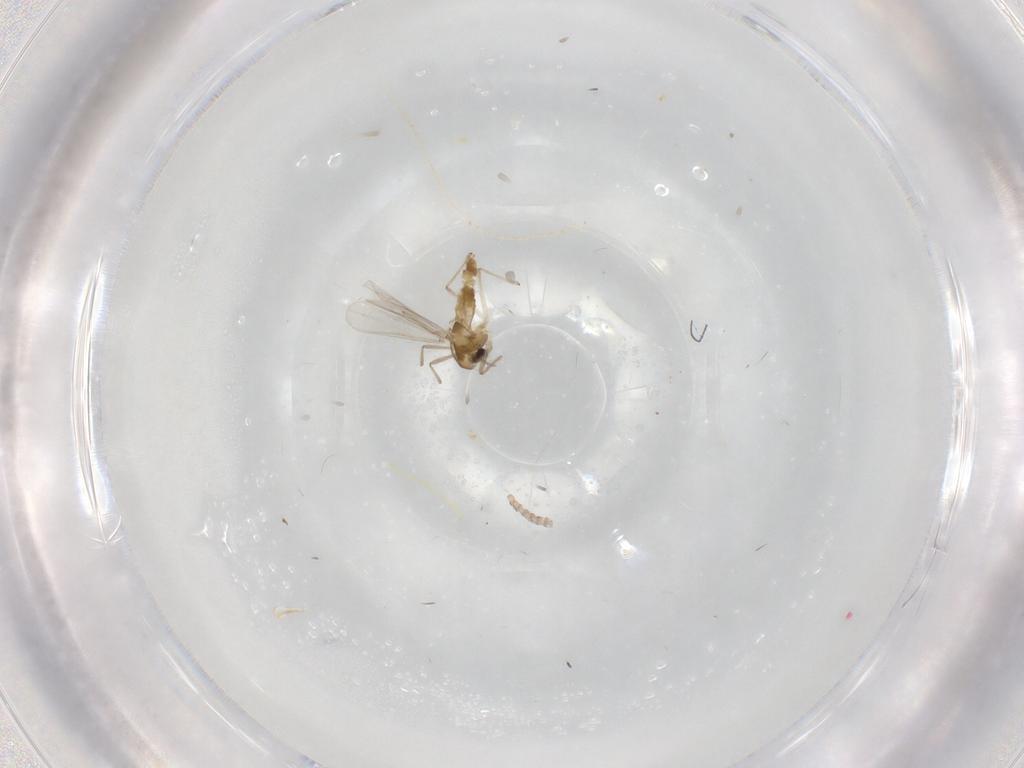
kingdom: Animalia
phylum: Arthropoda
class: Insecta
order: Diptera
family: Chironomidae
